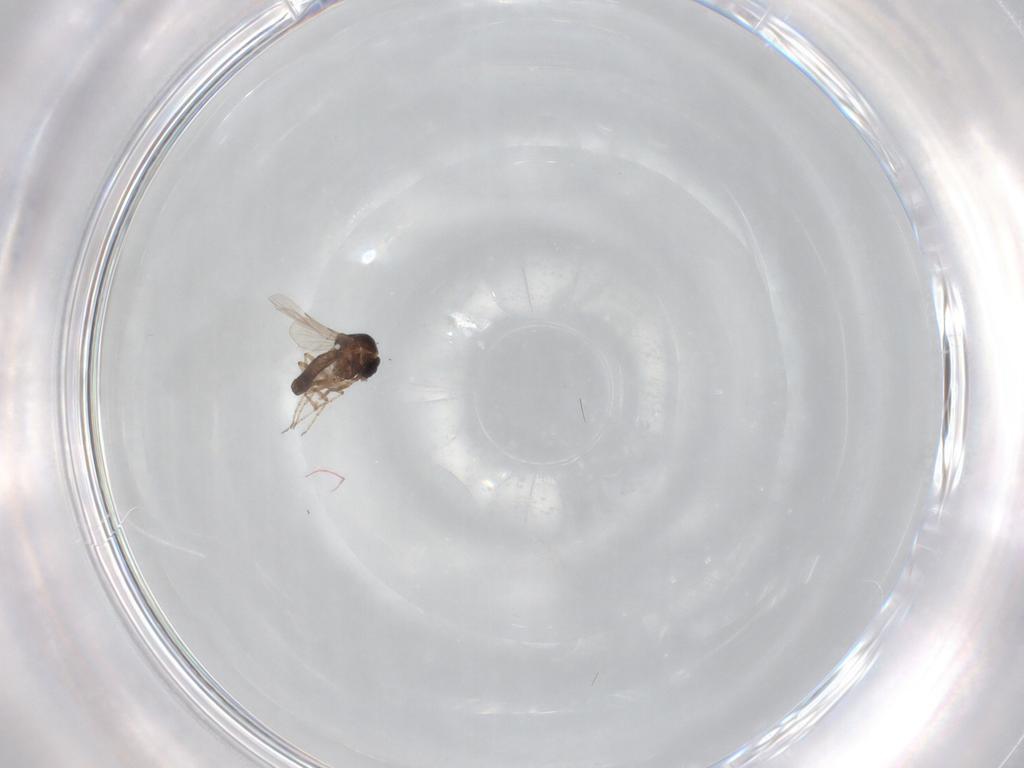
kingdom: Animalia
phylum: Arthropoda
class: Insecta
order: Diptera
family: Ceratopogonidae
